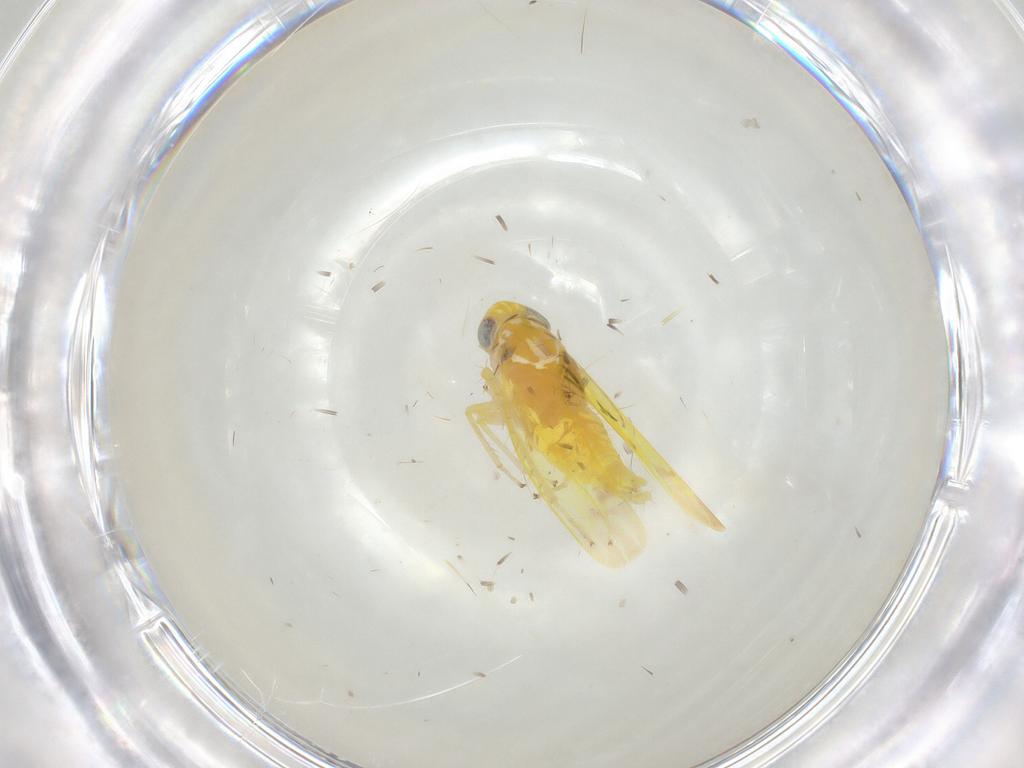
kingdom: Animalia
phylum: Arthropoda
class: Insecta
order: Hemiptera
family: Cicadellidae
